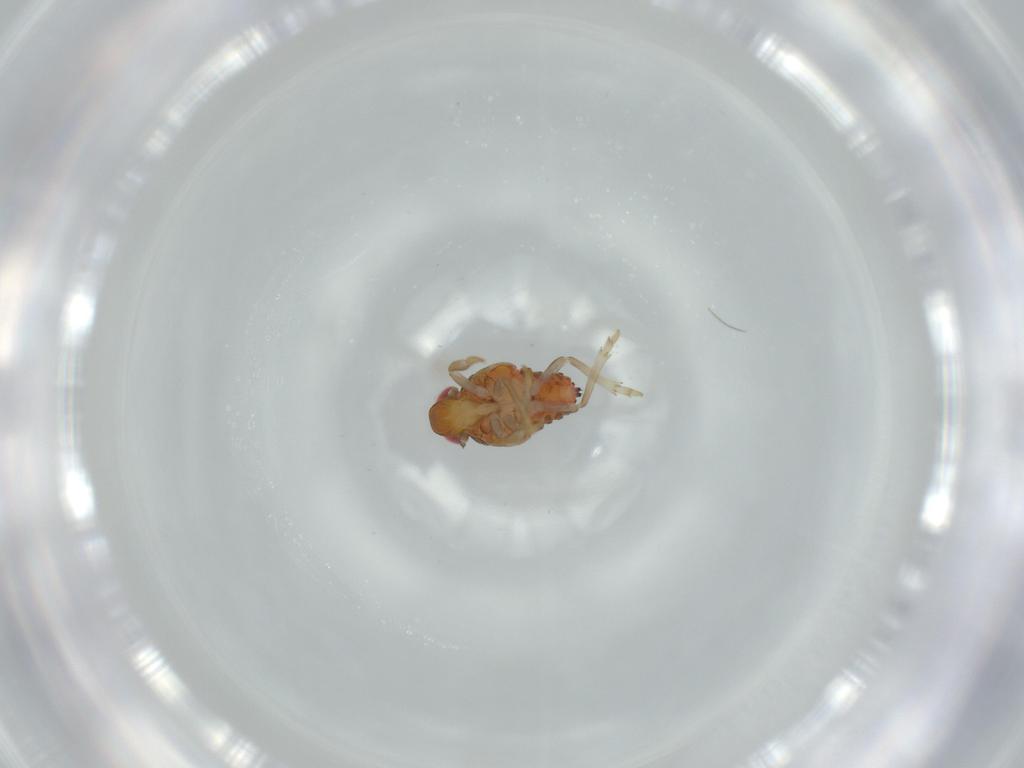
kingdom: Animalia
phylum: Arthropoda
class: Insecta
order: Hemiptera
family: Issidae
